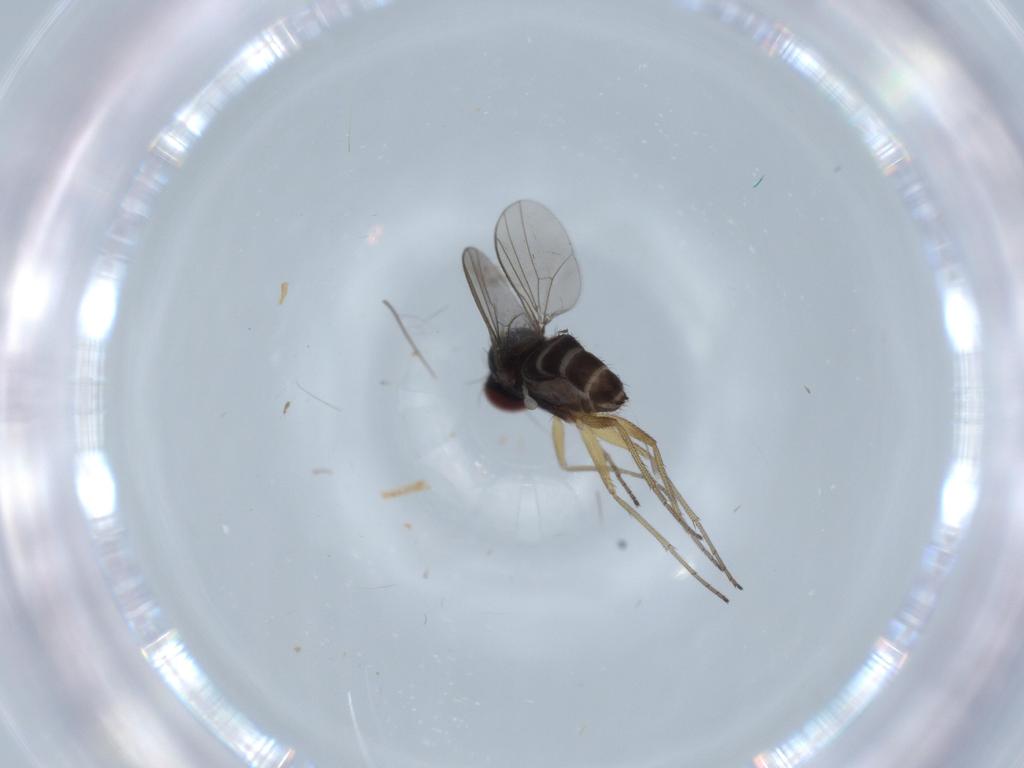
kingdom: Animalia
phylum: Arthropoda
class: Insecta
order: Diptera
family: Dolichopodidae
